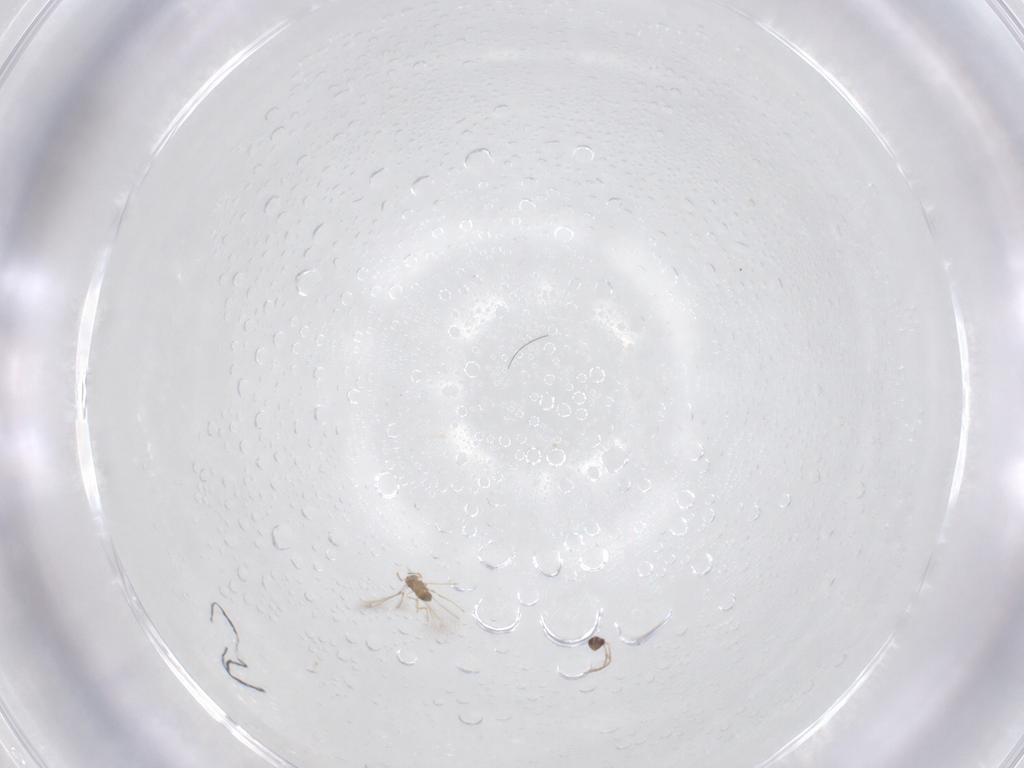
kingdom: Animalia
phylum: Arthropoda
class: Insecta
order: Hymenoptera
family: Mymaridae
